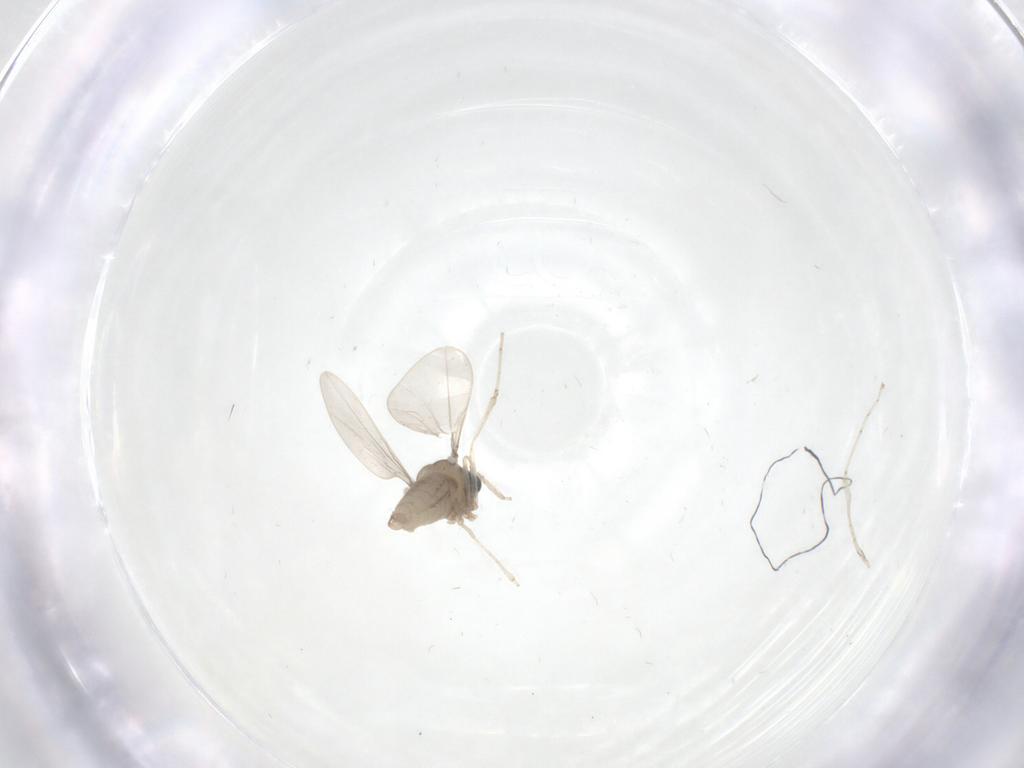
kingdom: Animalia
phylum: Arthropoda
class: Insecta
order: Diptera
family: Cecidomyiidae
